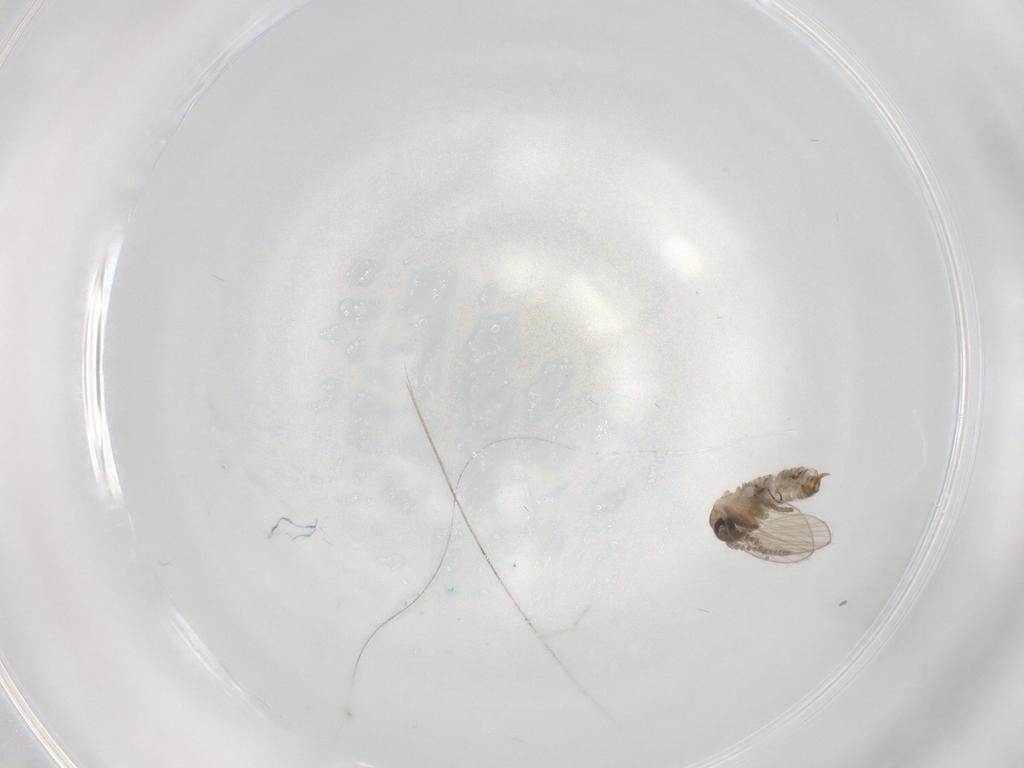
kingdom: Animalia
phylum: Arthropoda
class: Insecta
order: Diptera
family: Psychodidae
